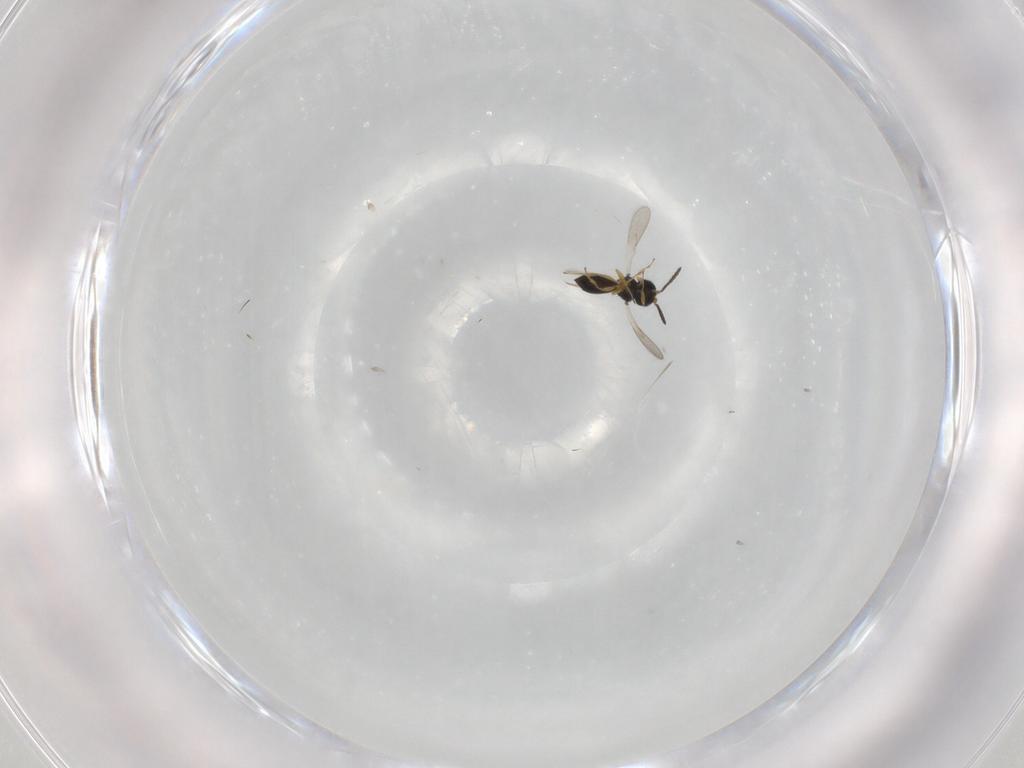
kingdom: Animalia
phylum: Arthropoda
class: Insecta
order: Hymenoptera
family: Scelionidae
